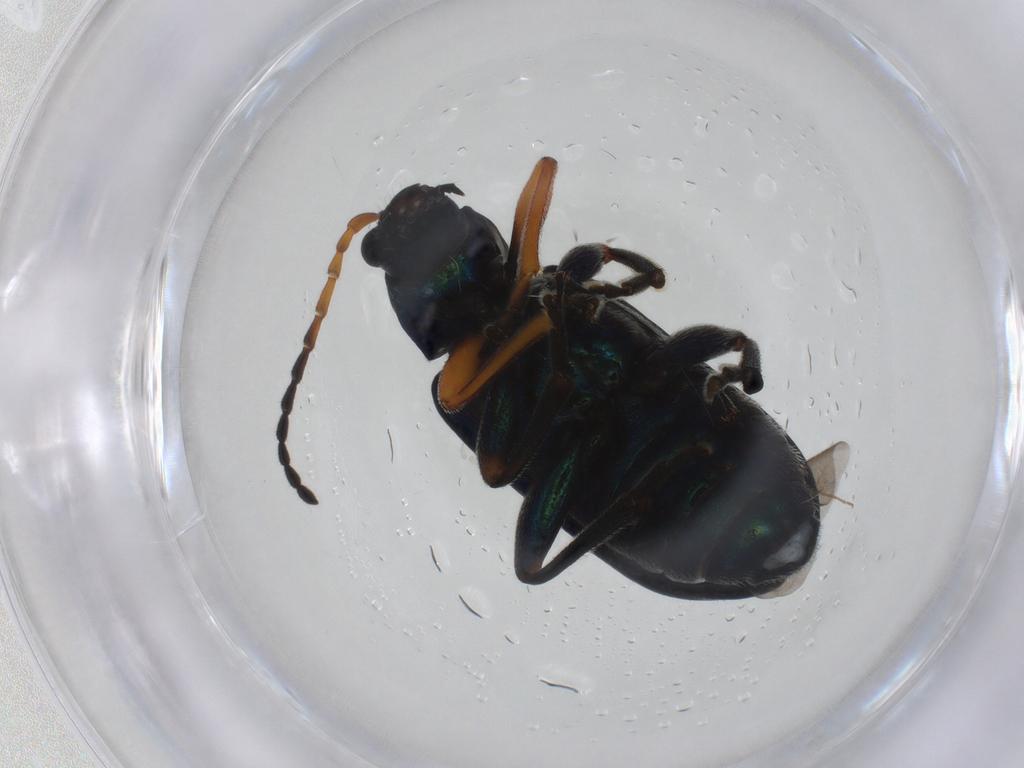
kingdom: Animalia
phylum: Arthropoda
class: Insecta
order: Coleoptera
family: Chrysomelidae
